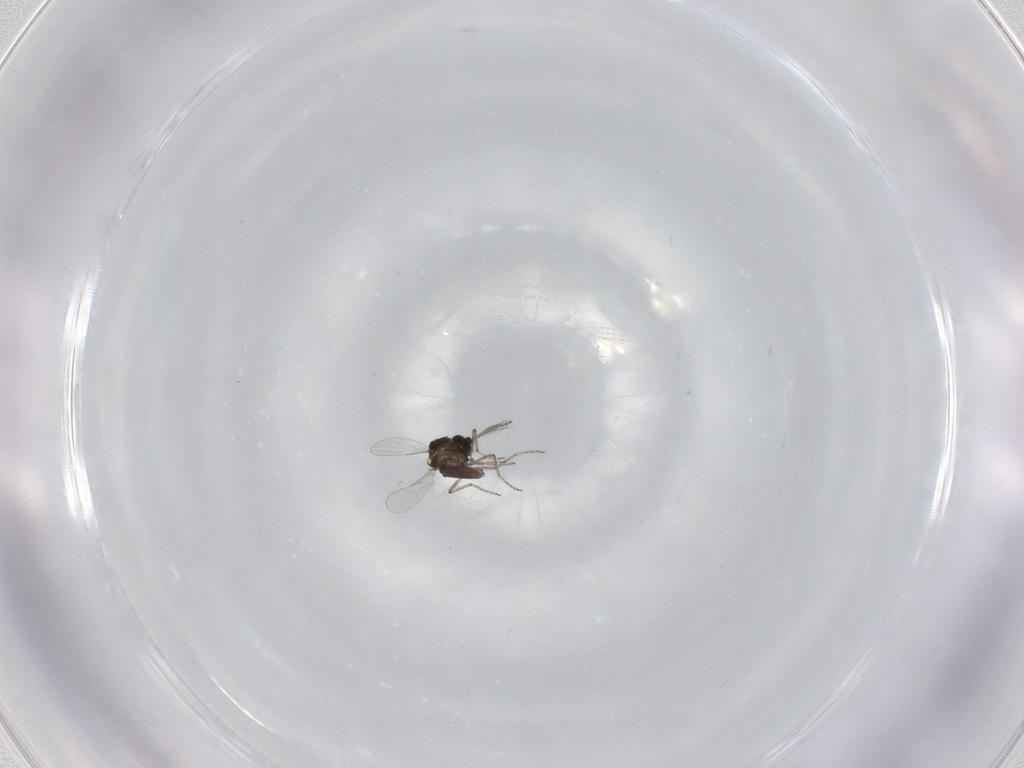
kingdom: Animalia
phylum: Arthropoda
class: Insecta
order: Diptera
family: Ceratopogonidae
